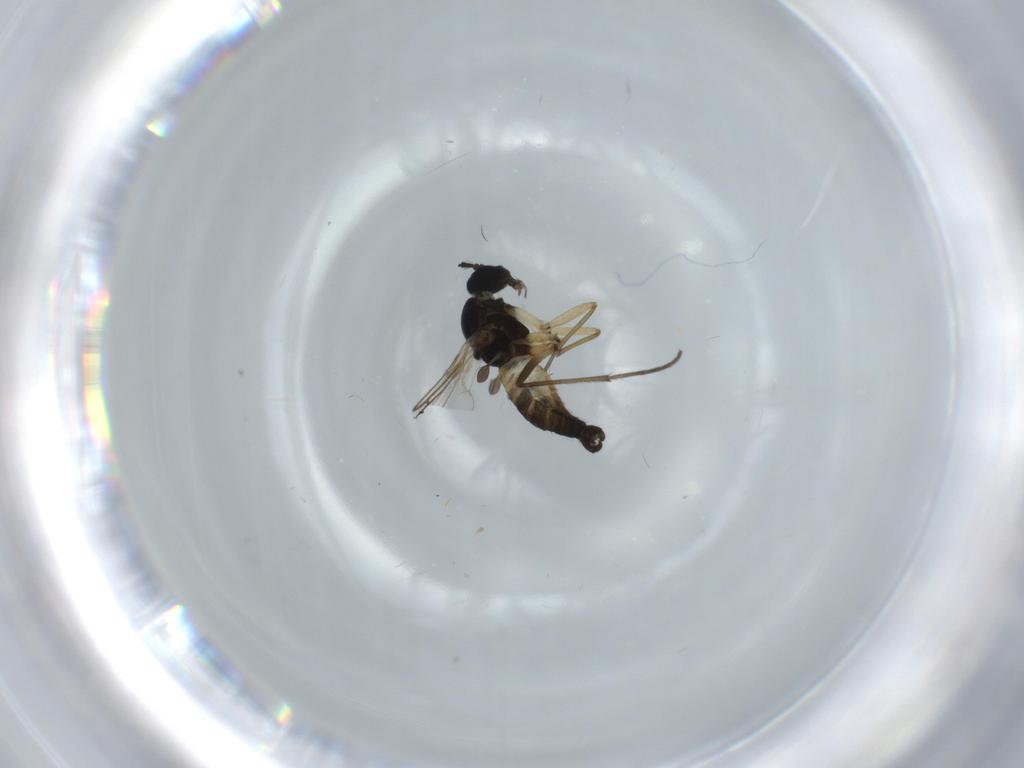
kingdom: Animalia
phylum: Arthropoda
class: Insecta
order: Diptera
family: Sciaridae
